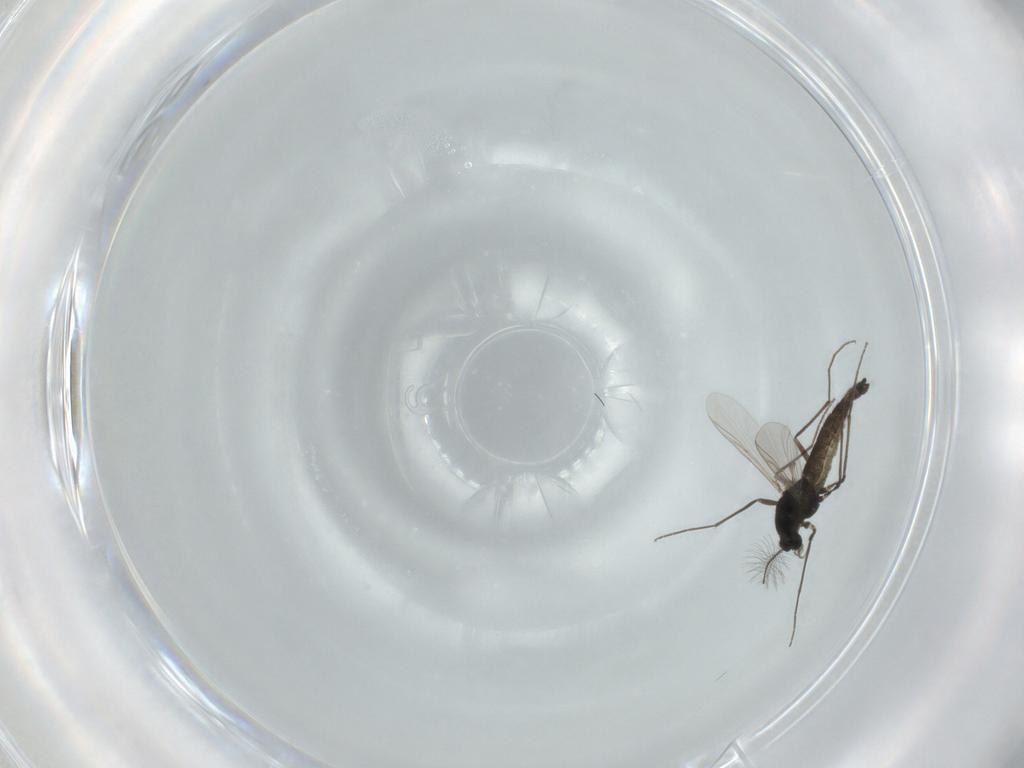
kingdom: Animalia
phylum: Arthropoda
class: Insecta
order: Diptera
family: Chironomidae
